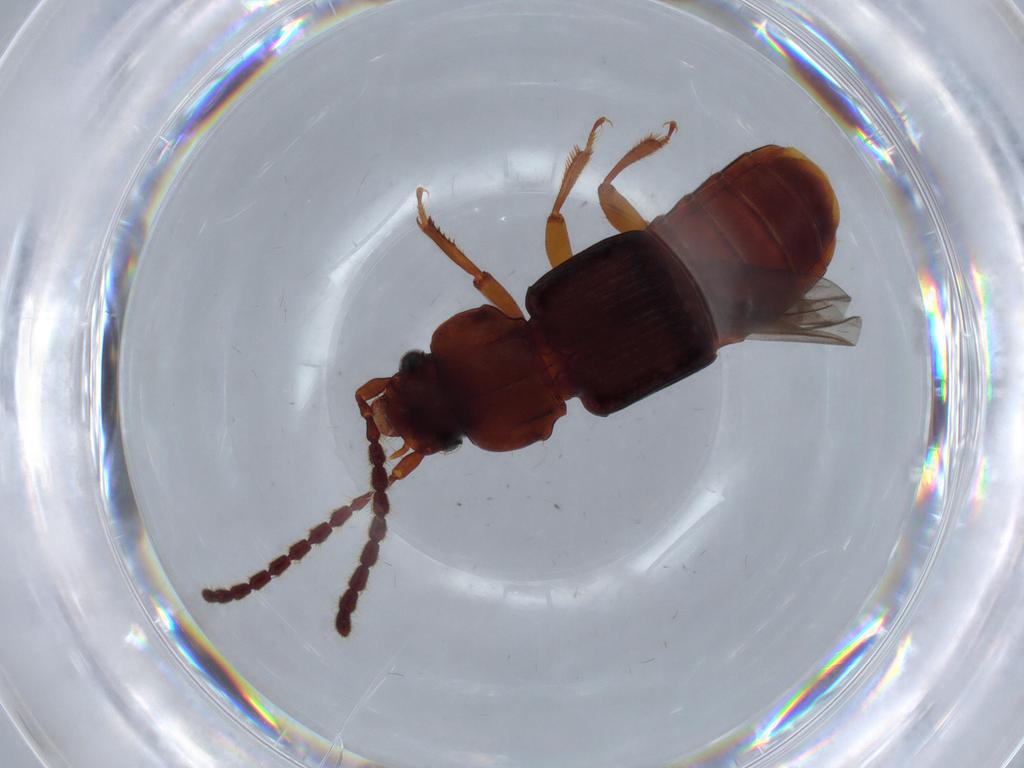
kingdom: Animalia
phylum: Arthropoda
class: Insecta
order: Coleoptera
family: Staphylinidae
